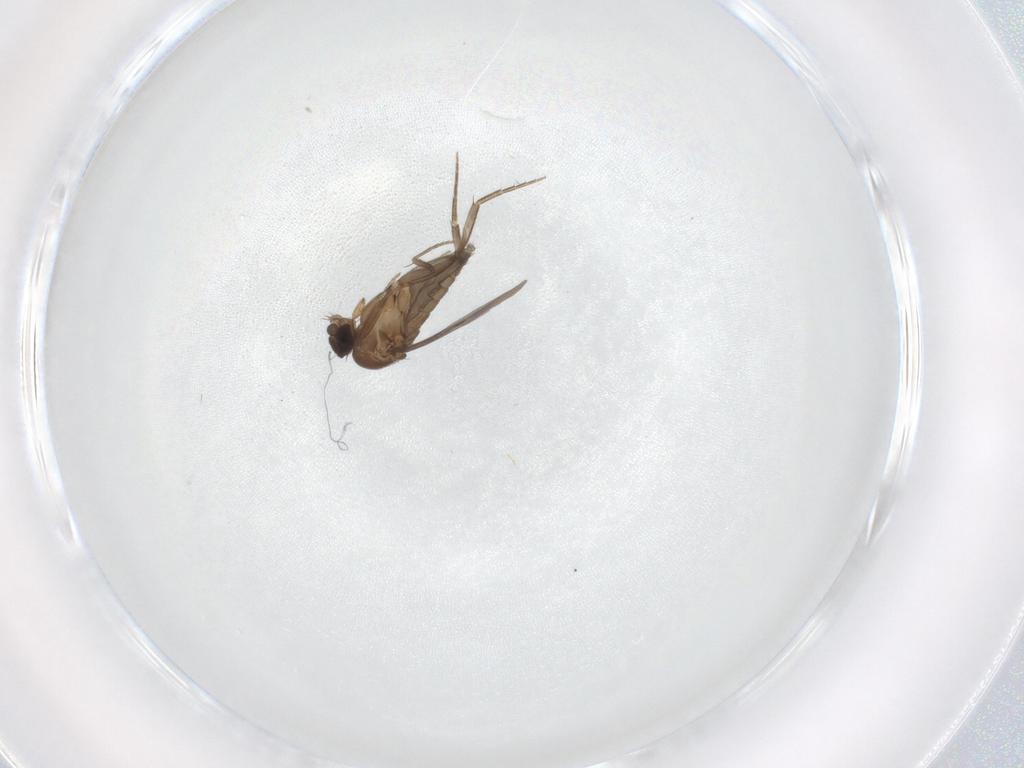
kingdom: Animalia
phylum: Arthropoda
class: Insecta
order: Diptera
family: Phoridae
